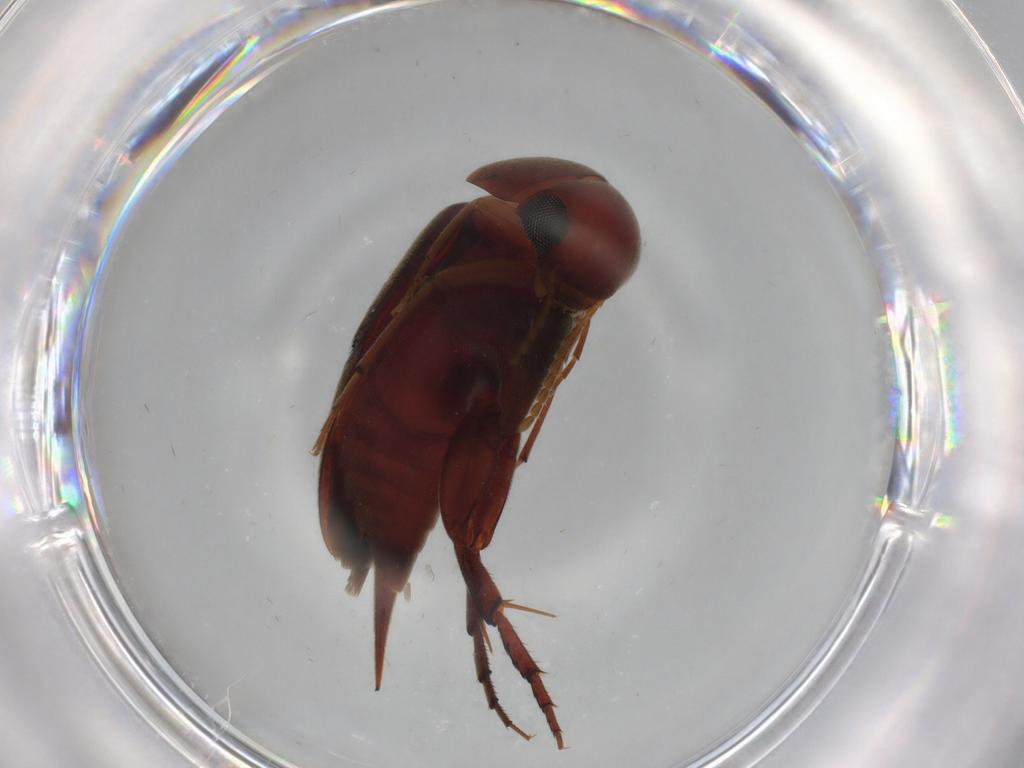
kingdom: Animalia
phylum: Arthropoda
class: Insecta
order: Coleoptera
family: Mordellidae
